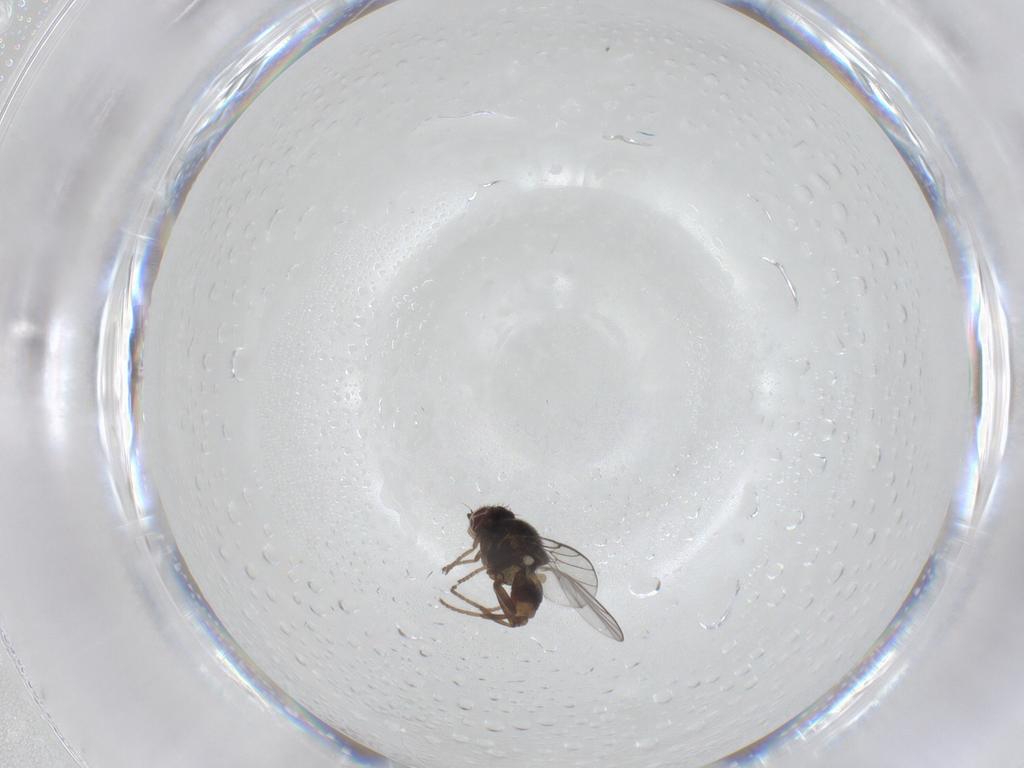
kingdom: Animalia
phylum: Arthropoda
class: Insecta
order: Diptera
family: Chloropidae
